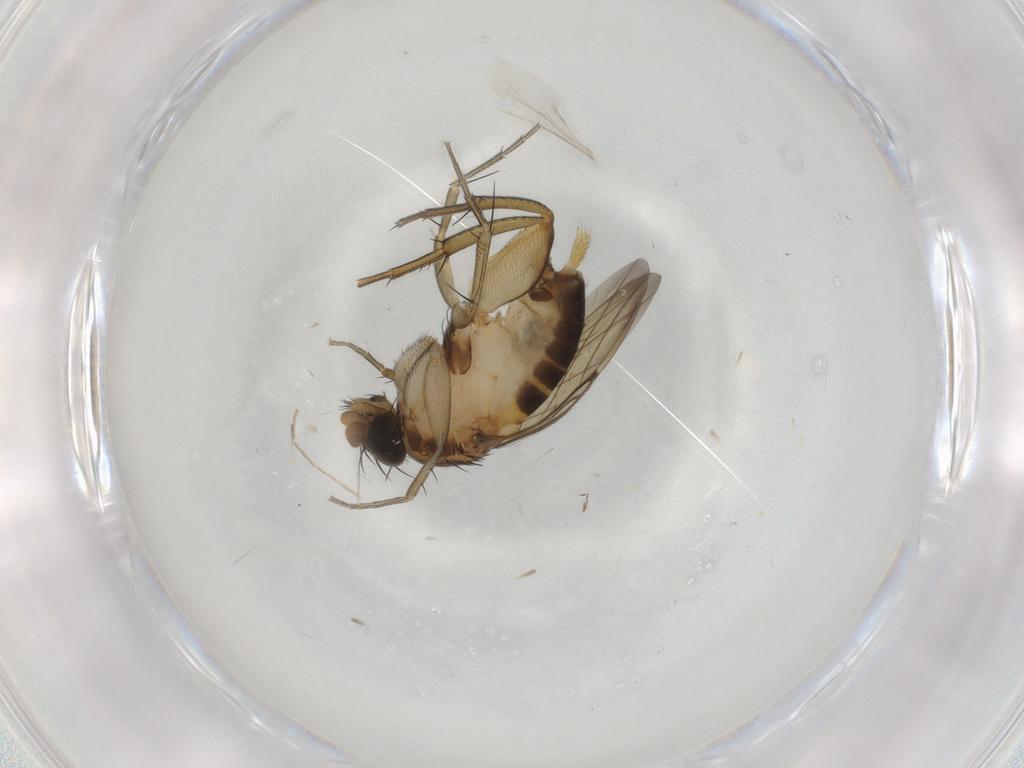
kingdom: Animalia
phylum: Arthropoda
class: Insecta
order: Diptera
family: Phoridae
